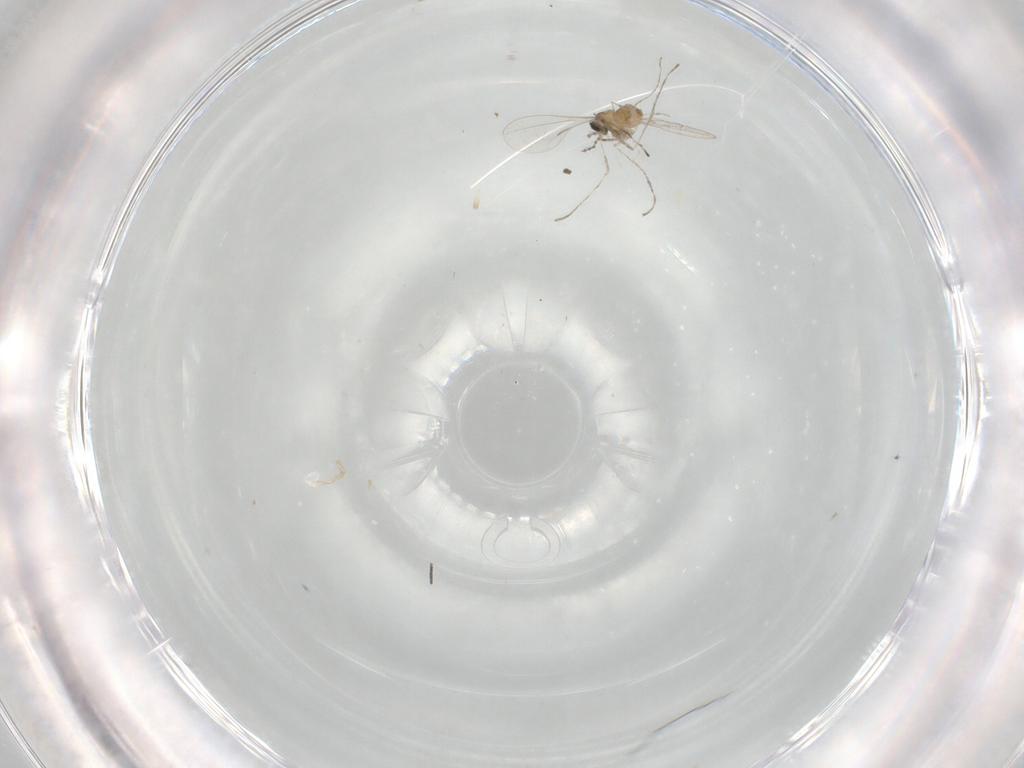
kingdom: Animalia
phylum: Arthropoda
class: Insecta
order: Diptera
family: Cecidomyiidae
